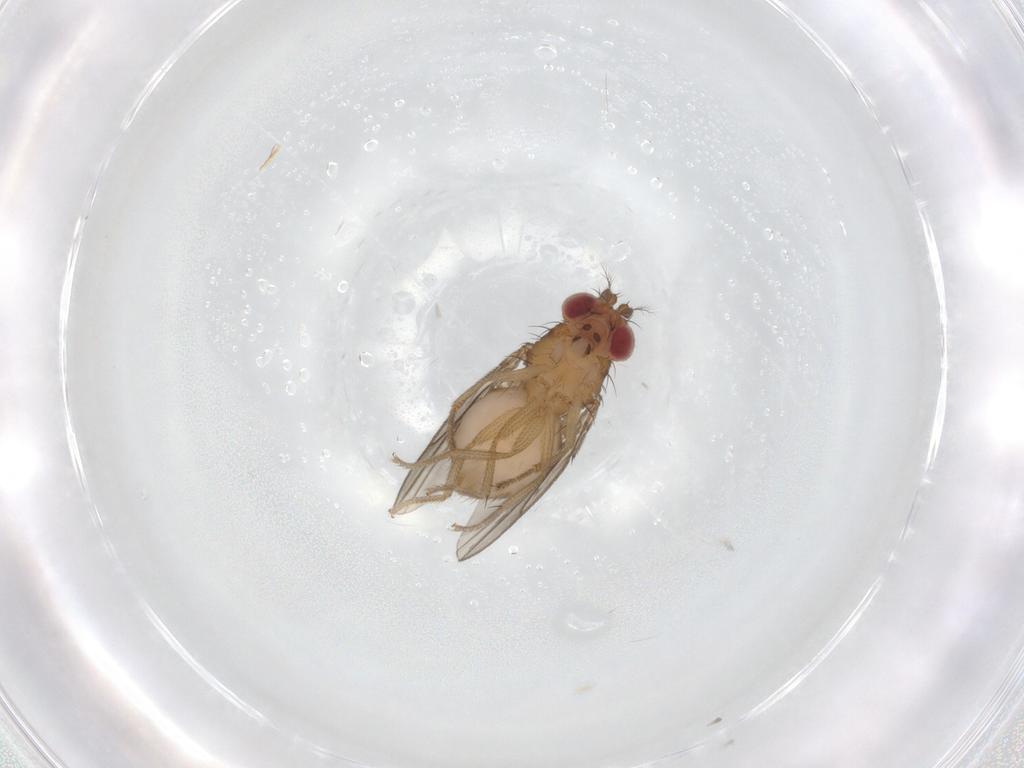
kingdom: Animalia
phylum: Arthropoda
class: Insecta
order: Diptera
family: Drosophilidae
